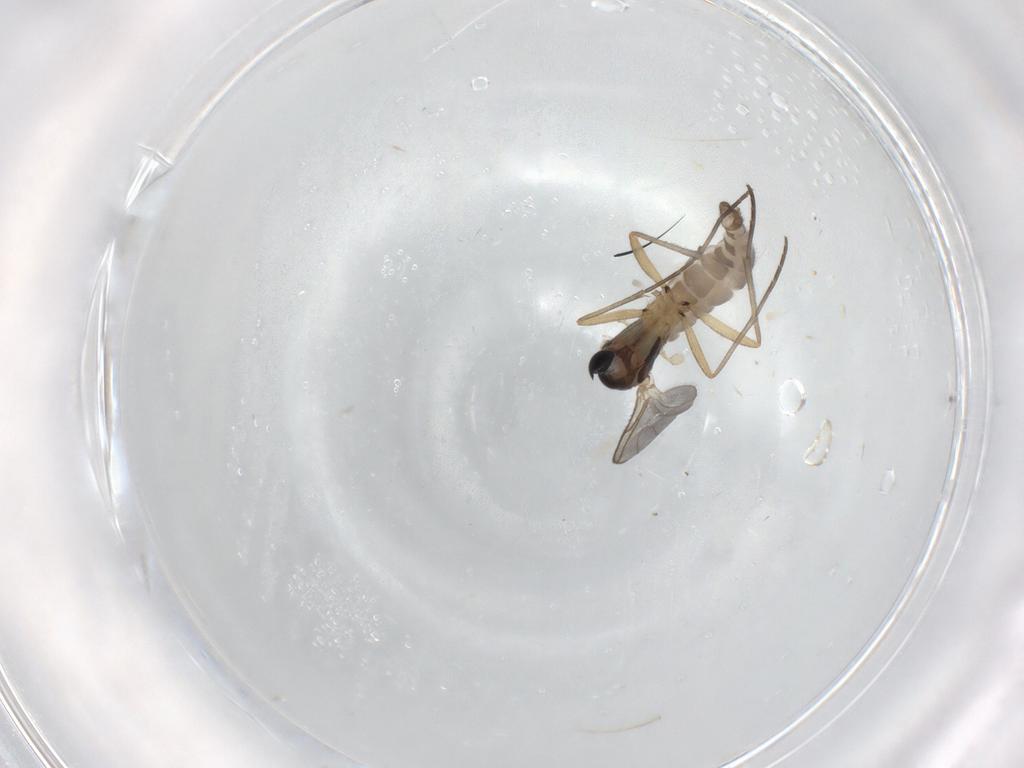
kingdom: Animalia
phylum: Arthropoda
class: Insecta
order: Diptera
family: Sciaridae
